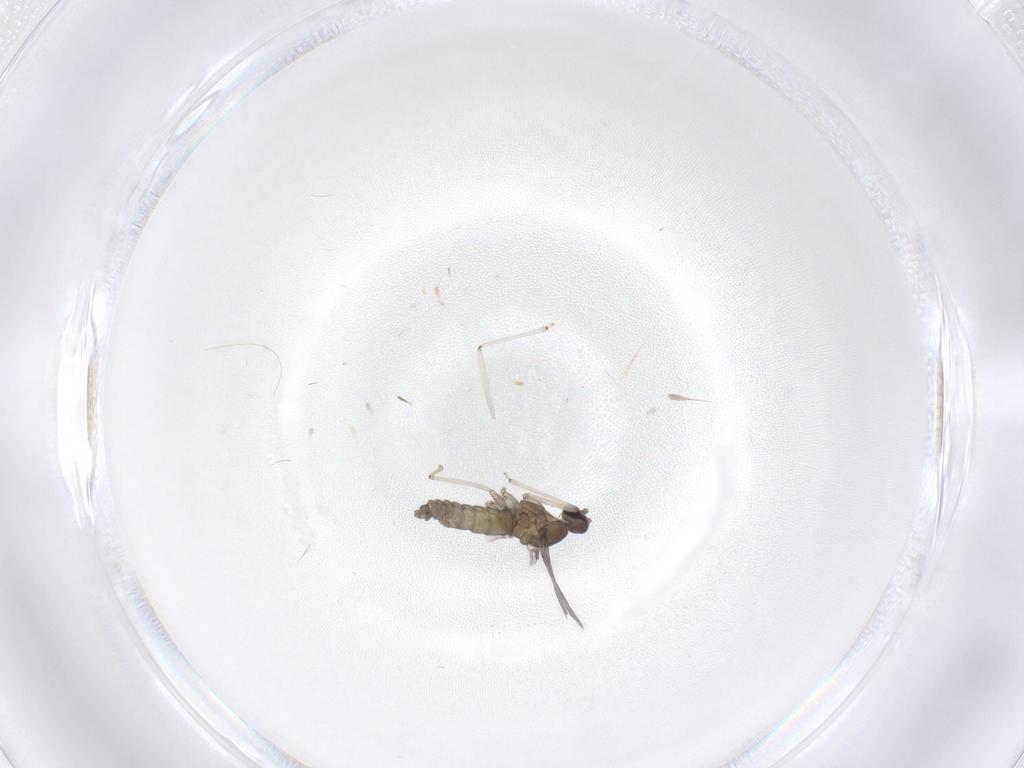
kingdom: Animalia
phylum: Arthropoda
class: Insecta
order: Diptera
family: Cecidomyiidae
